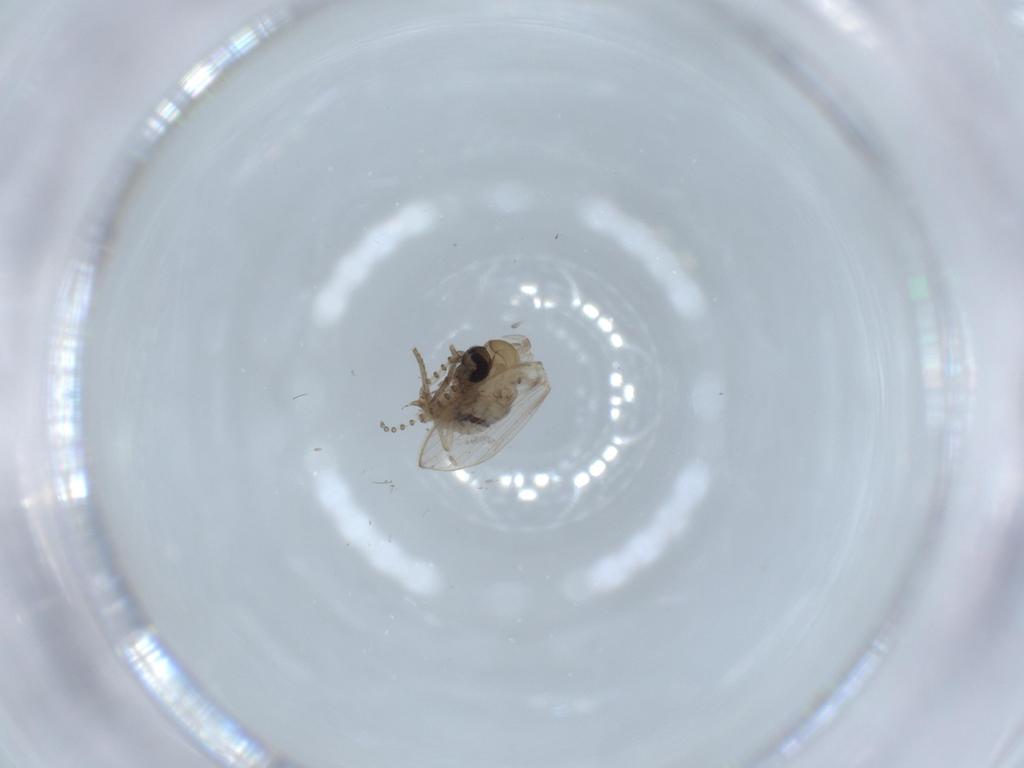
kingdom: Animalia
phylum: Arthropoda
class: Insecta
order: Diptera
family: Psychodidae
